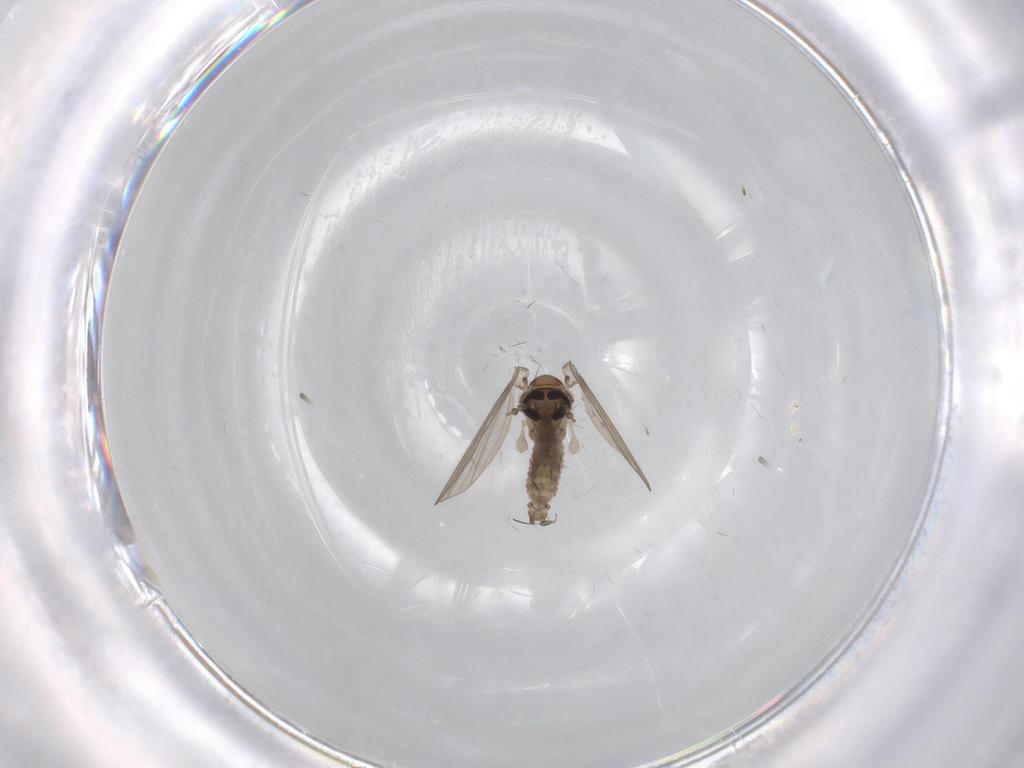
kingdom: Animalia
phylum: Arthropoda
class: Insecta
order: Diptera
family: Drosophilidae
